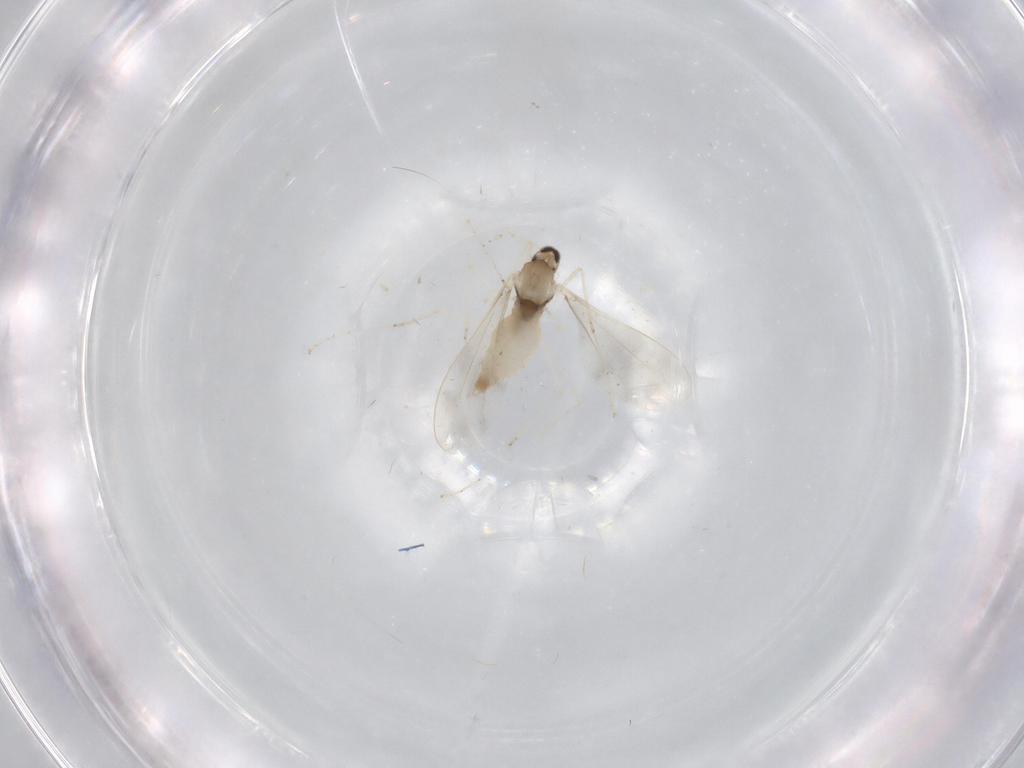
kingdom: Animalia
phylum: Arthropoda
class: Insecta
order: Diptera
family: Cecidomyiidae
